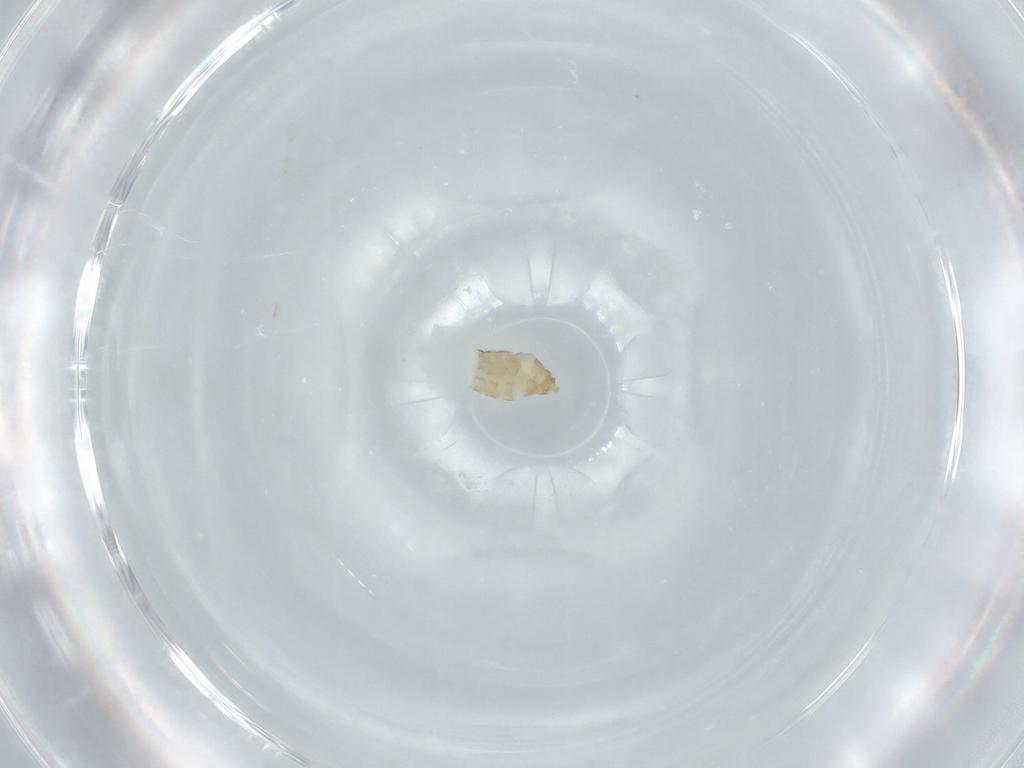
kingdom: Animalia
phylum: Arthropoda
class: Insecta
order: Diptera
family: Chironomidae
